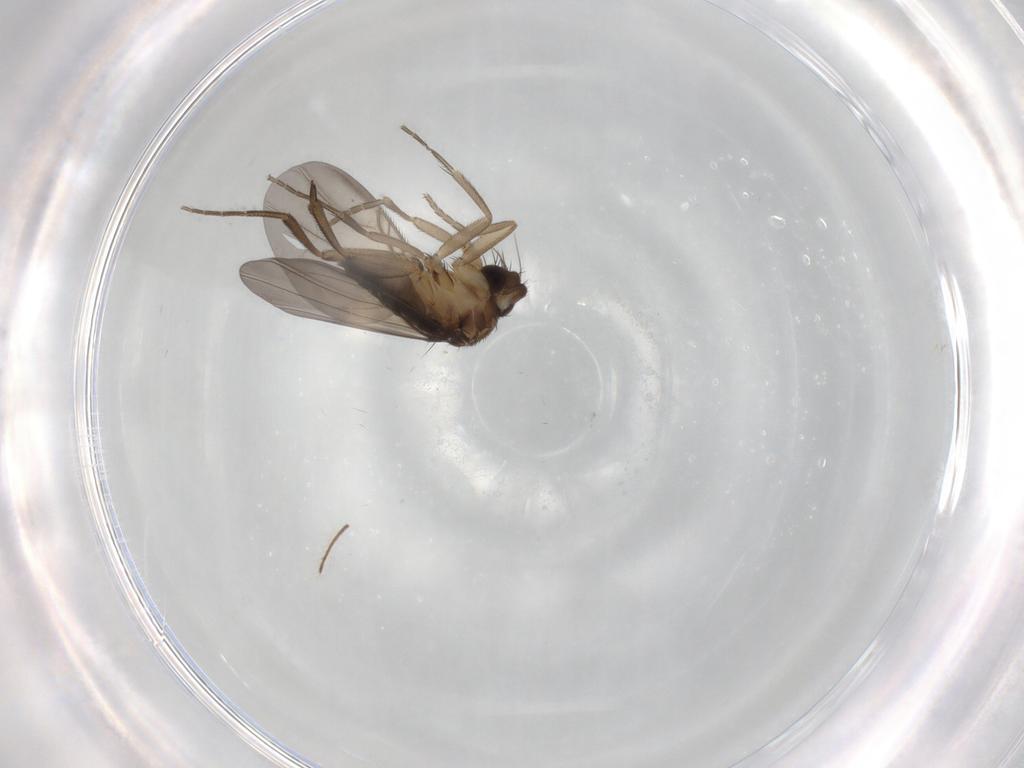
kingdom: Animalia
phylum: Arthropoda
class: Insecta
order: Diptera
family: Phoridae
